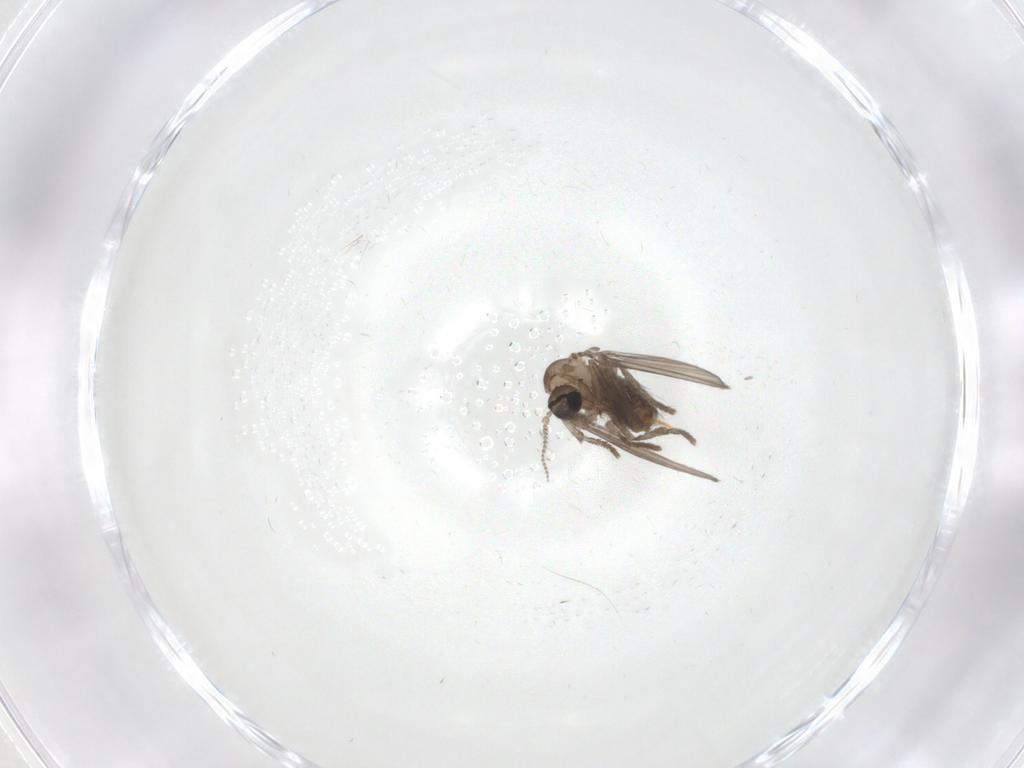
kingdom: Animalia
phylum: Arthropoda
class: Insecta
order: Diptera
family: Psychodidae
